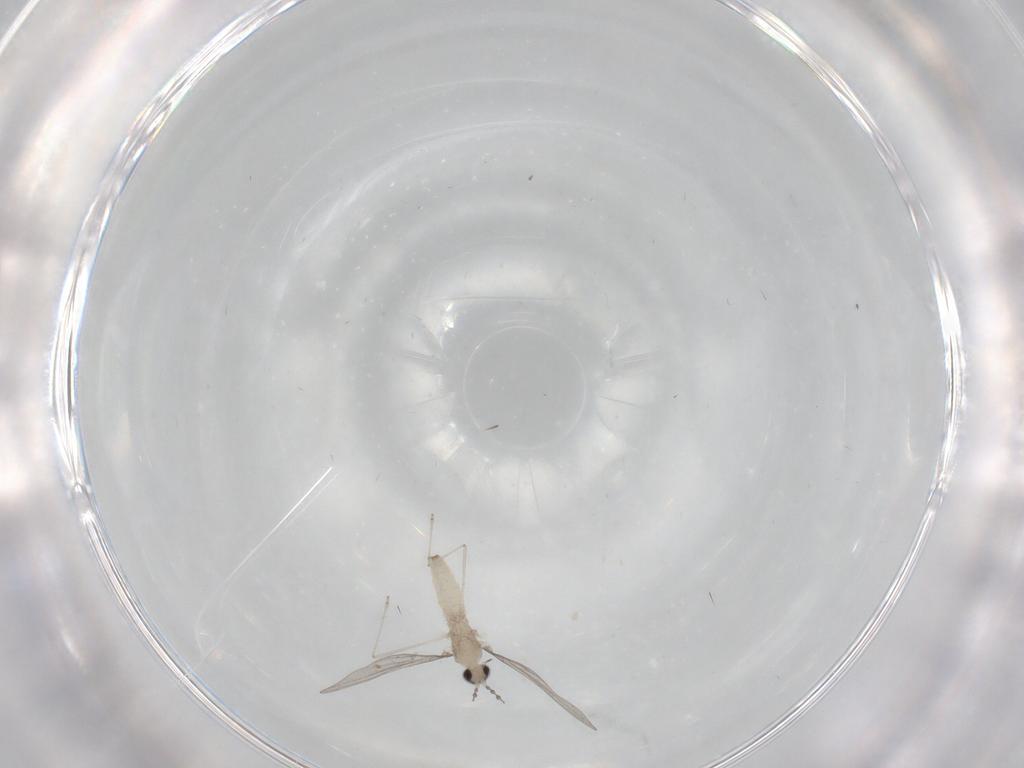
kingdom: Animalia
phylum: Arthropoda
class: Insecta
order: Diptera
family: Cecidomyiidae
